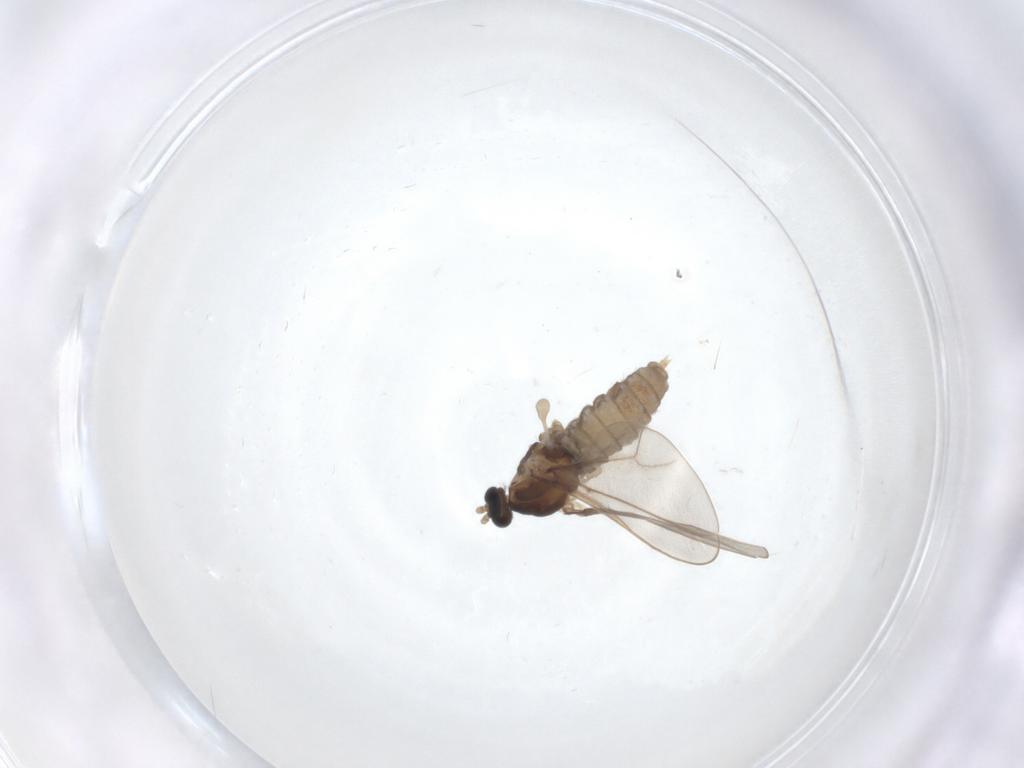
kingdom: Animalia
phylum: Arthropoda
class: Insecta
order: Diptera
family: Cecidomyiidae
